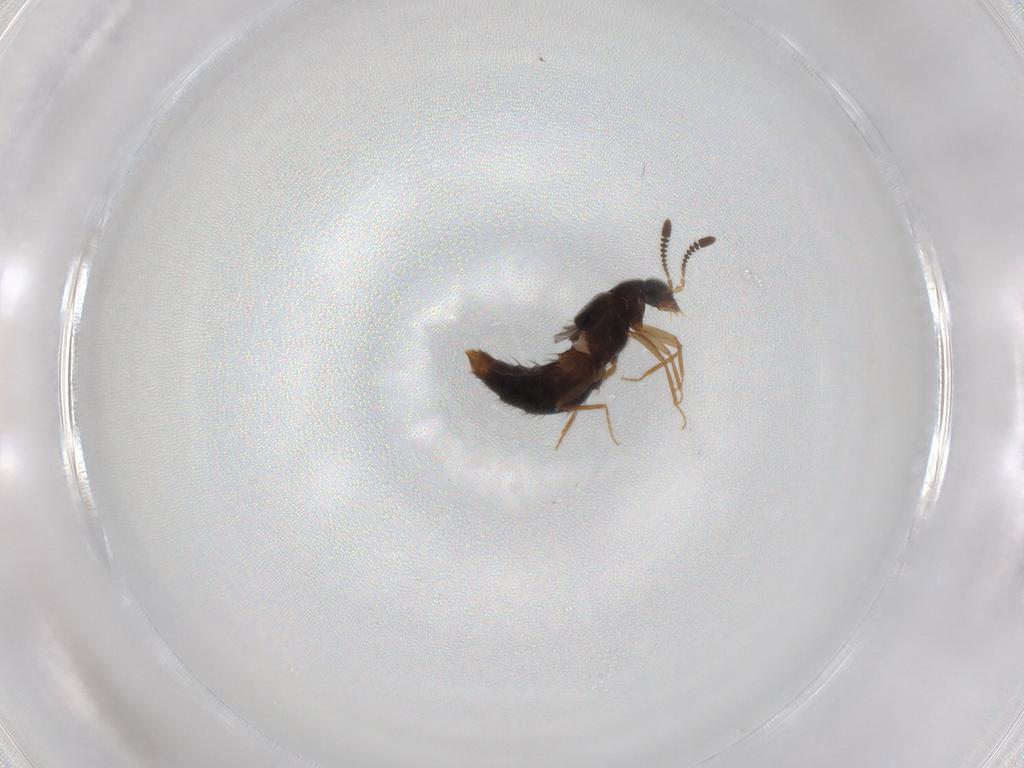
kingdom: Animalia
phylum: Arthropoda
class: Insecta
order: Coleoptera
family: Staphylinidae
